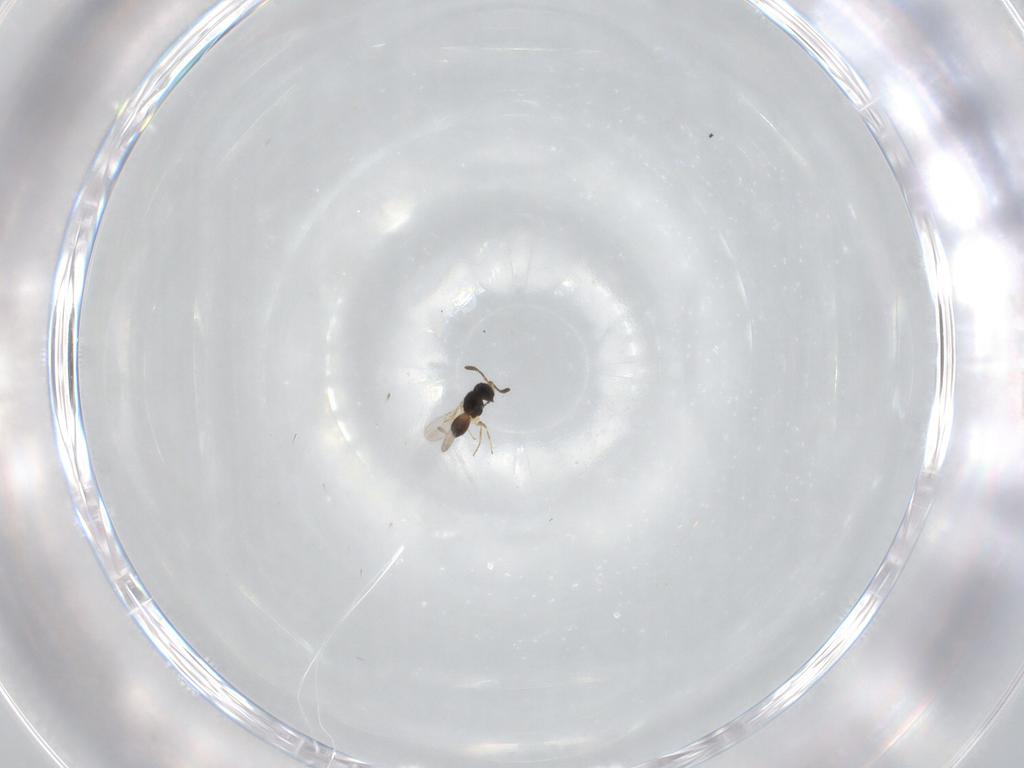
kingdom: Animalia
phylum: Arthropoda
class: Insecta
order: Hymenoptera
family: Scelionidae
